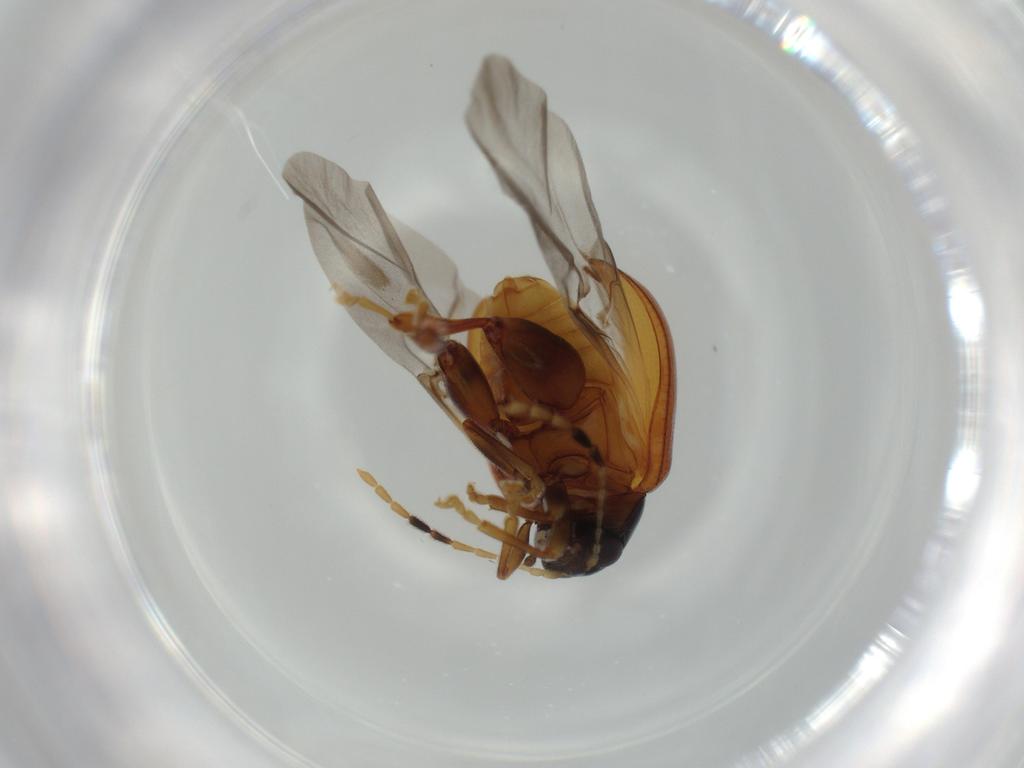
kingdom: Animalia
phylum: Arthropoda
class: Insecta
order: Coleoptera
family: Chrysomelidae
